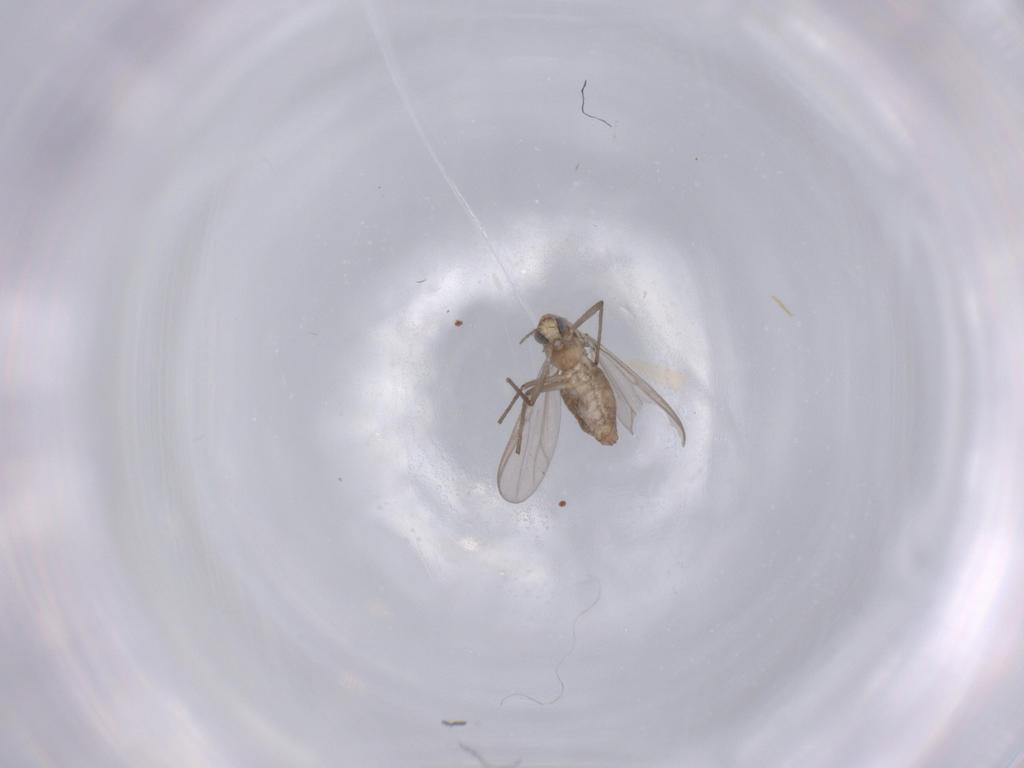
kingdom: Animalia
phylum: Arthropoda
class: Insecta
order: Diptera
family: Chironomidae
